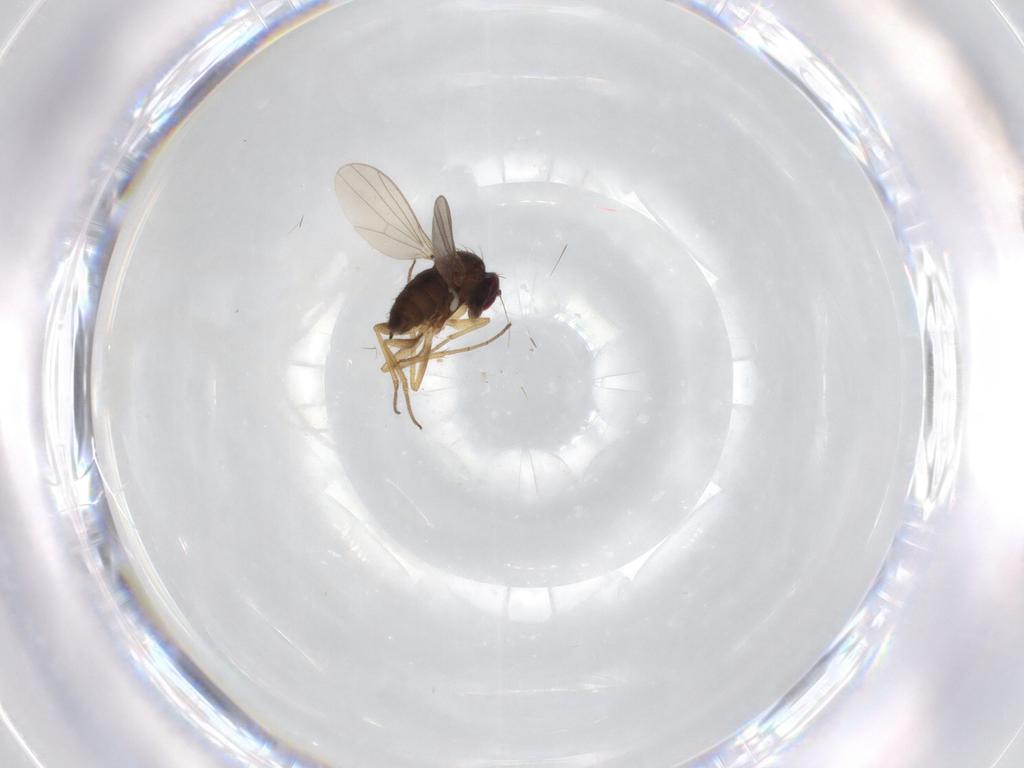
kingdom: Animalia
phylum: Arthropoda
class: Insecta
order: Diptera
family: Dolichopodidae
